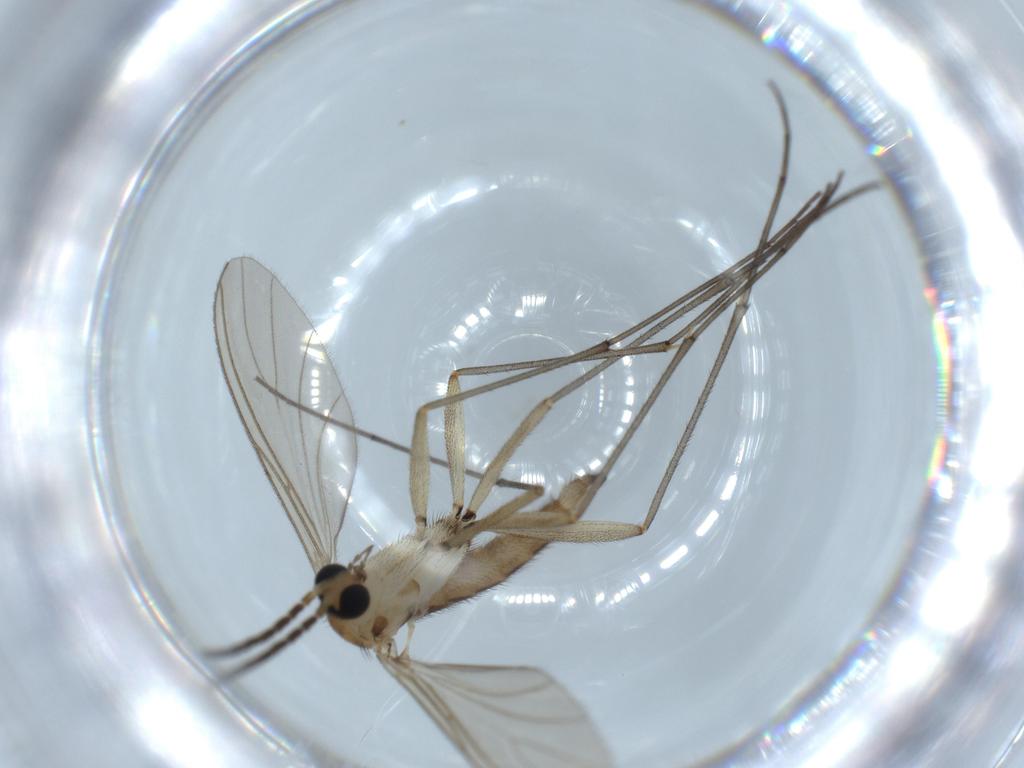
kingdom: Animalia
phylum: Arthropoda
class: Insecta
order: Diptera
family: Sciaridae
